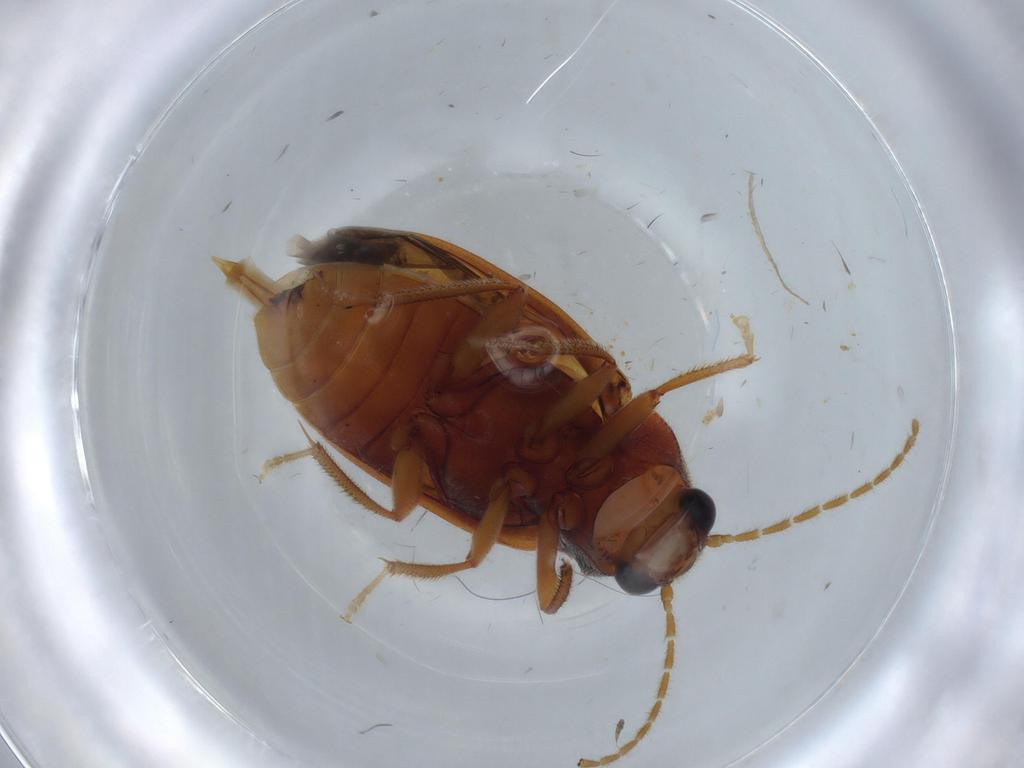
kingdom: Animalia
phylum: Arthropoda
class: Insecta
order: Coleoptera
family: Ptilodactylidae
